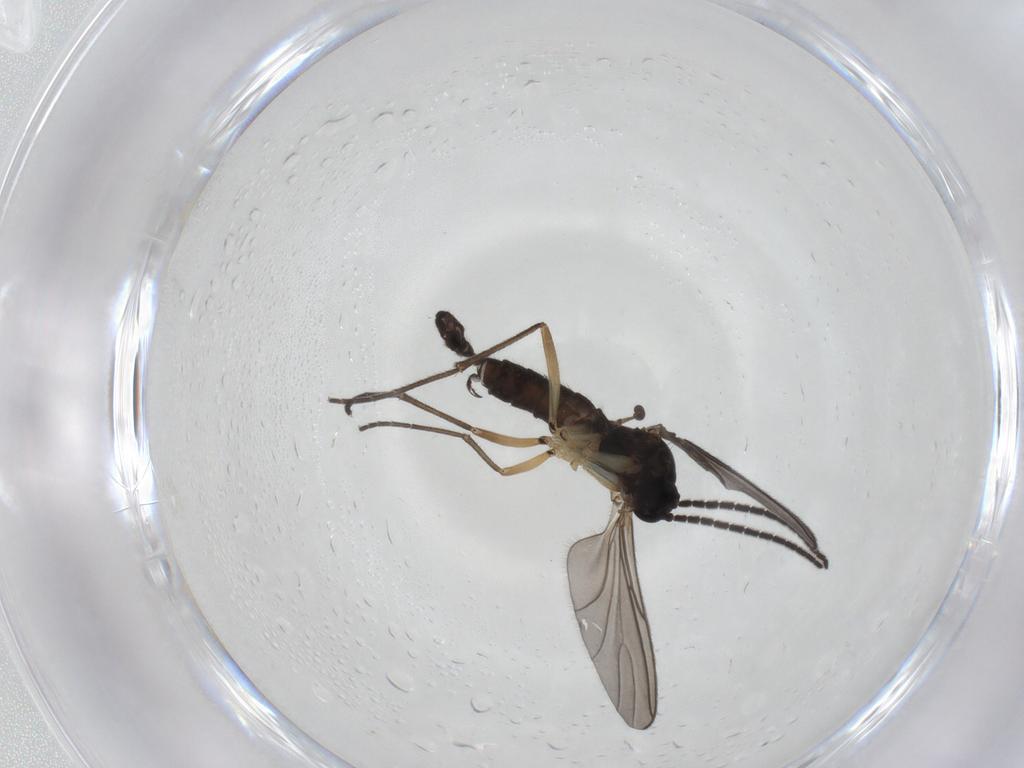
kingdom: Animalia
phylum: Arthropoda
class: Insecta
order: Diptera
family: Sciaridae
